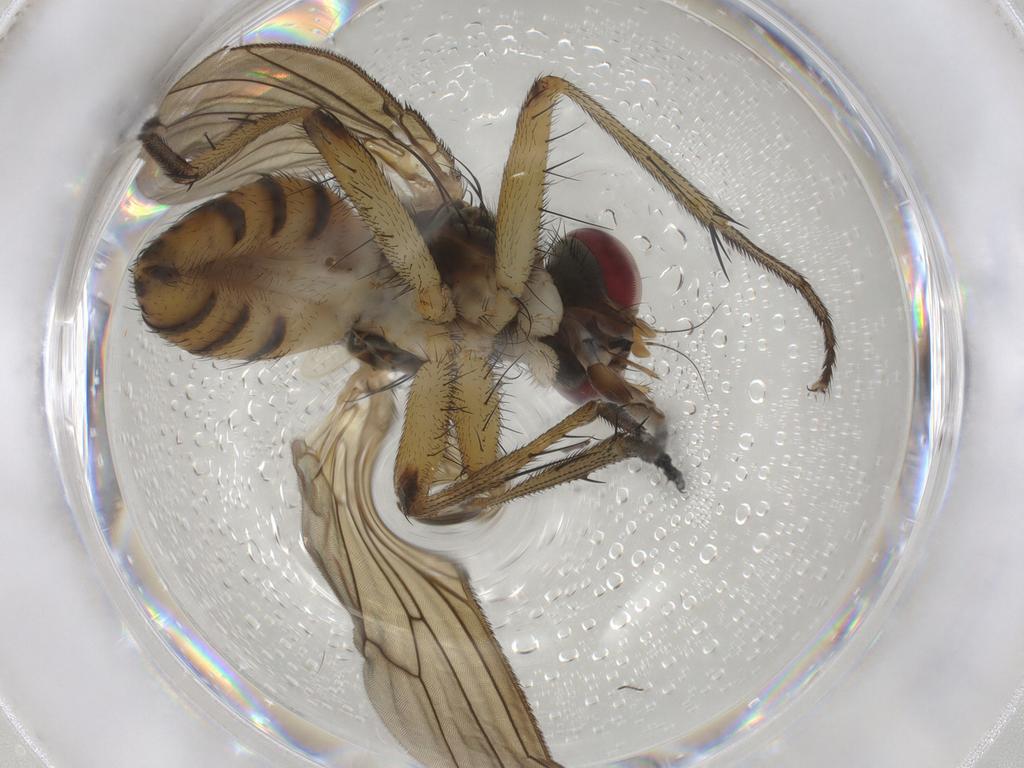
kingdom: Animalia
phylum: Arthropoda
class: Insecta
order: Diptera
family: Muscidae
